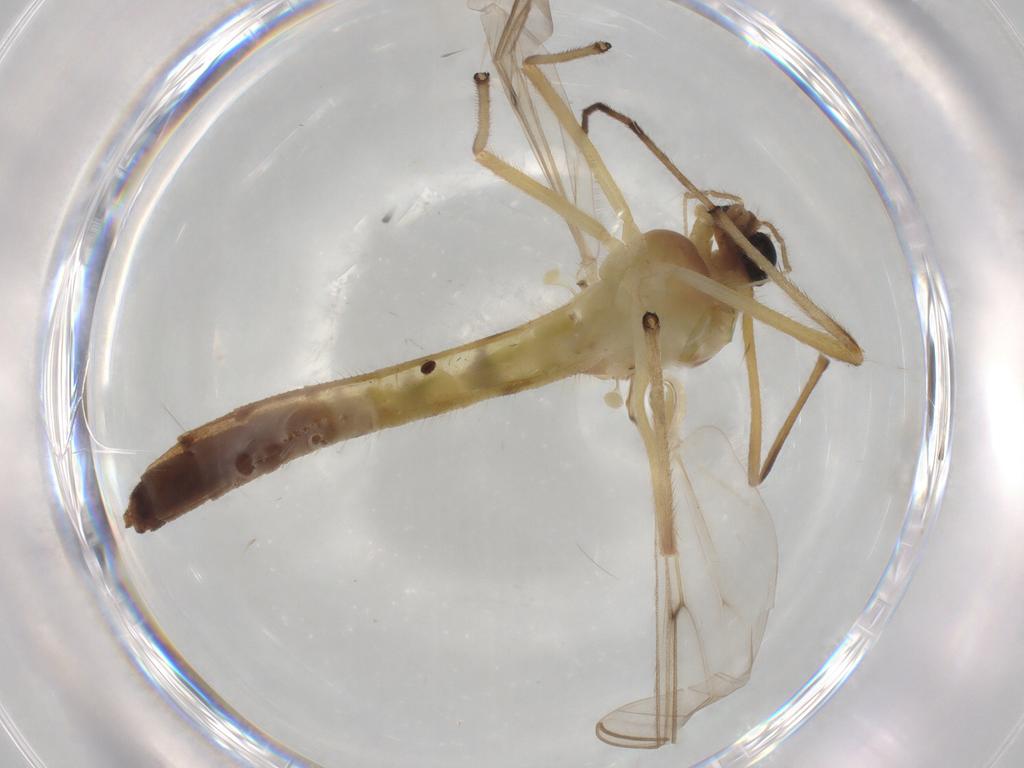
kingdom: Animalia
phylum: Arthropoda
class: Insecta
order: Diptera
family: Chironomidae
